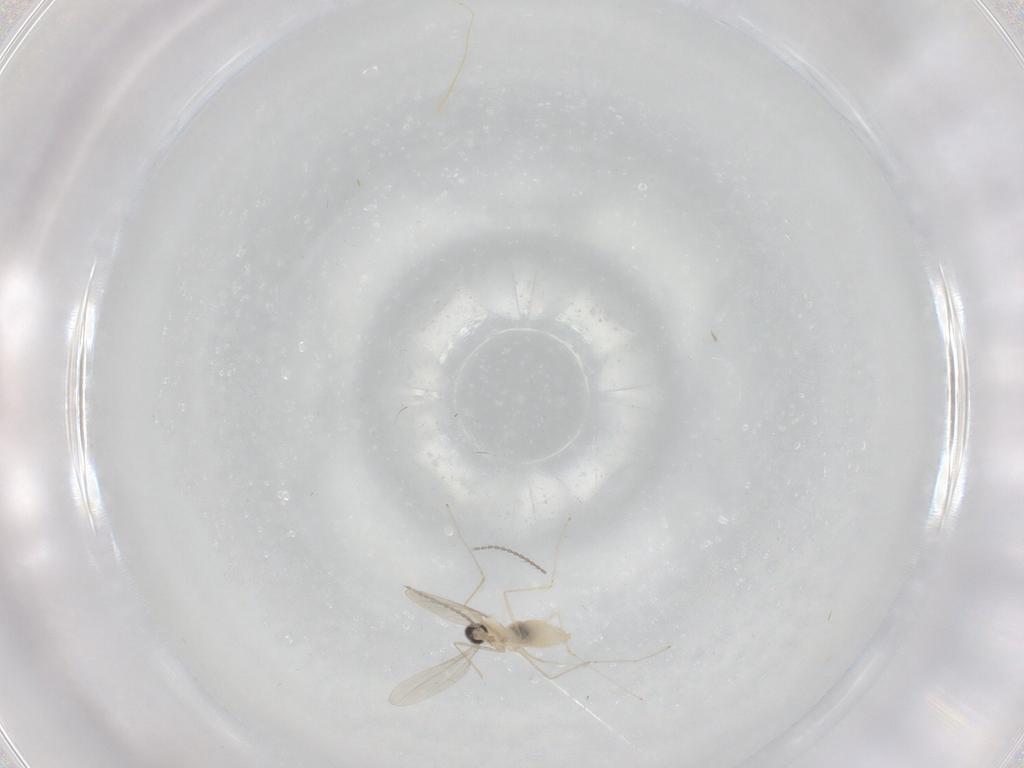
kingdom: Animalia
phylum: Arthropoda
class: Insecta
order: Diptera
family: Cecidomyiidae
